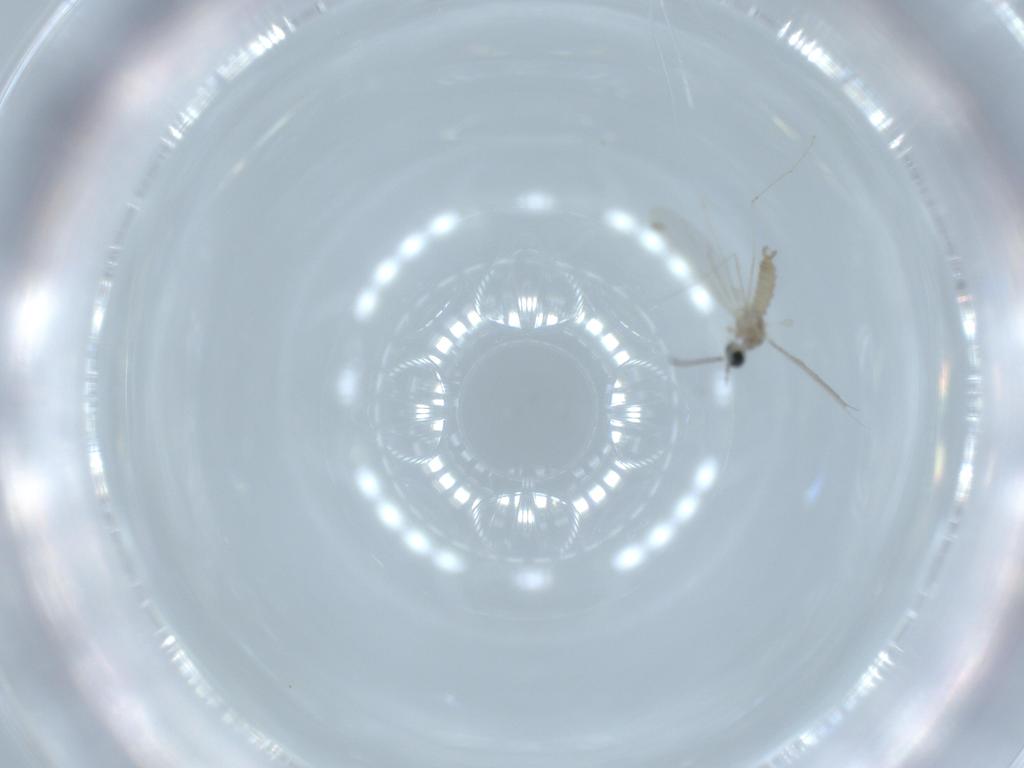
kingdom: Animalia
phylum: Arthropoda
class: Insecta
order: Diptera
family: Cecidomyiidae
